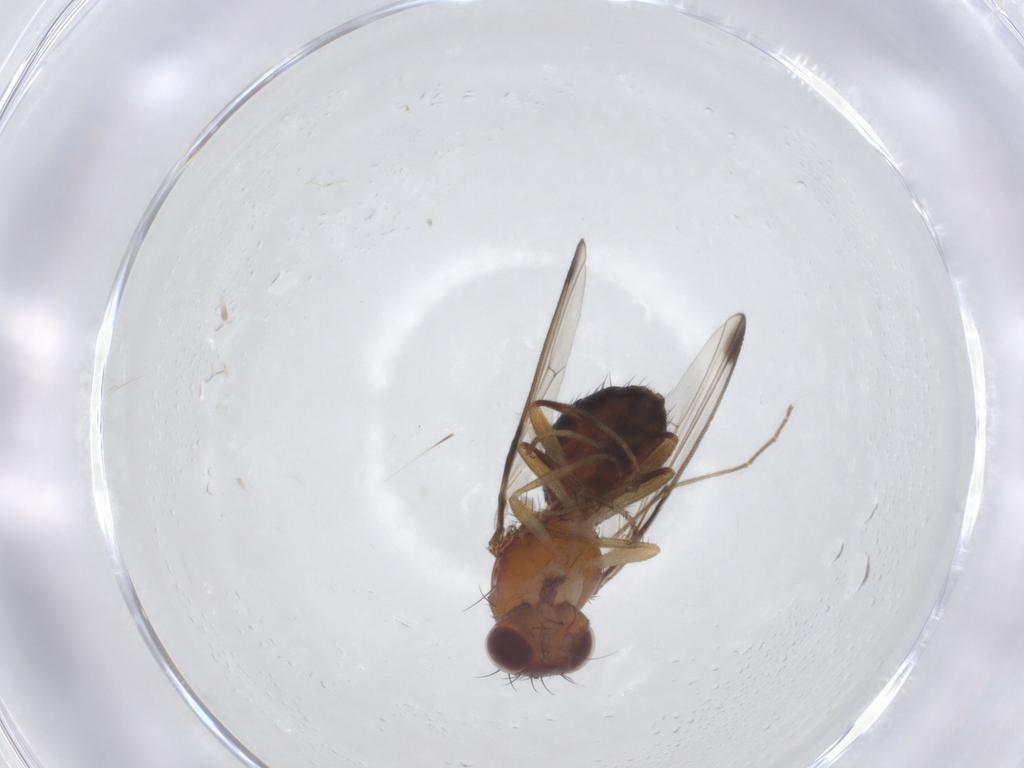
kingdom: Animalia
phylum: Arthropoda
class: Insecta
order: Diptera
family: Piophilidae
